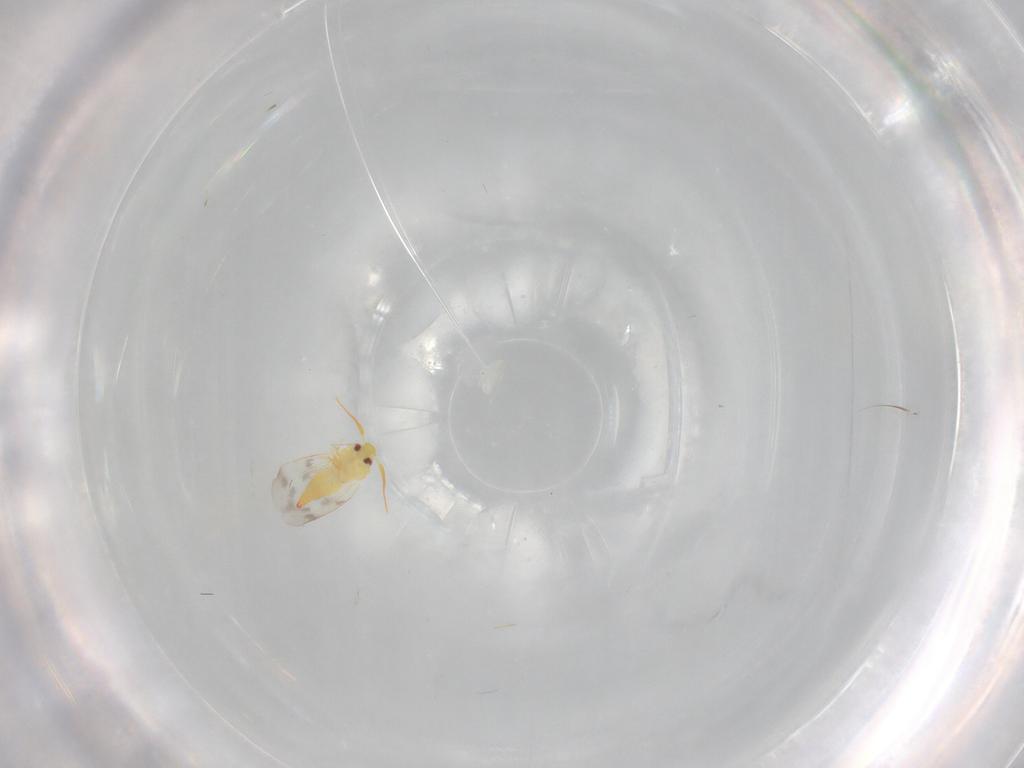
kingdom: Animalia
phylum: Arthropoda
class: Insecta
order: Hemiptera
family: Aleyrodidae
